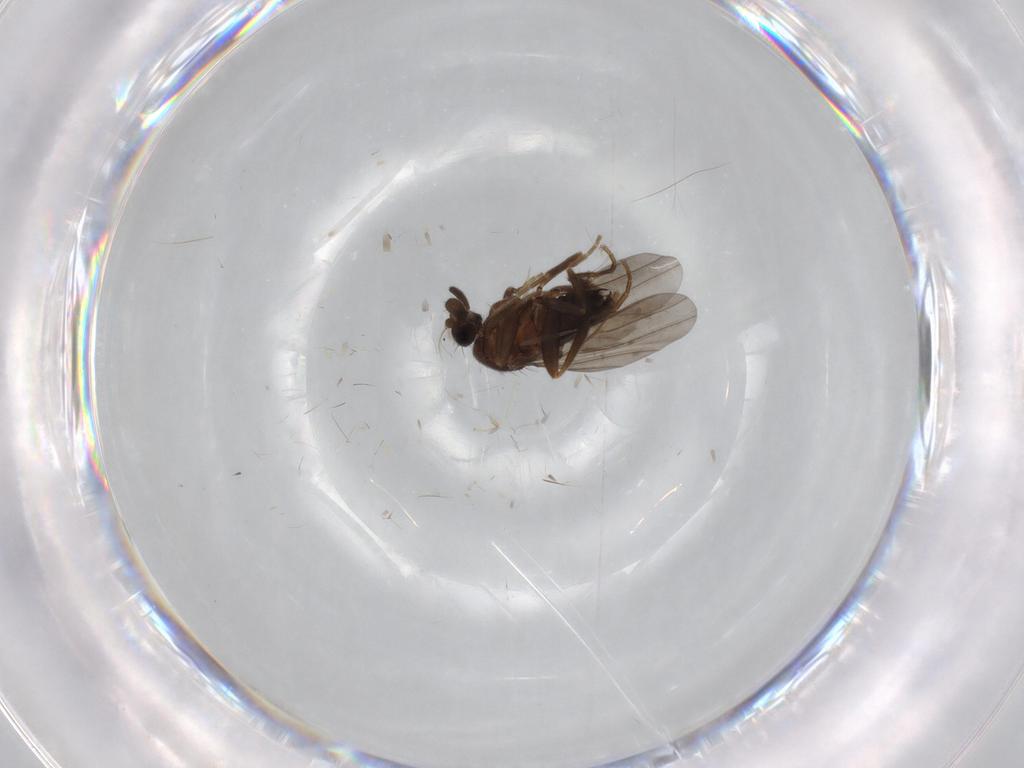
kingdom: Animalia
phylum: Arthropoda
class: Insecta
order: Diptera
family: Phoridae
